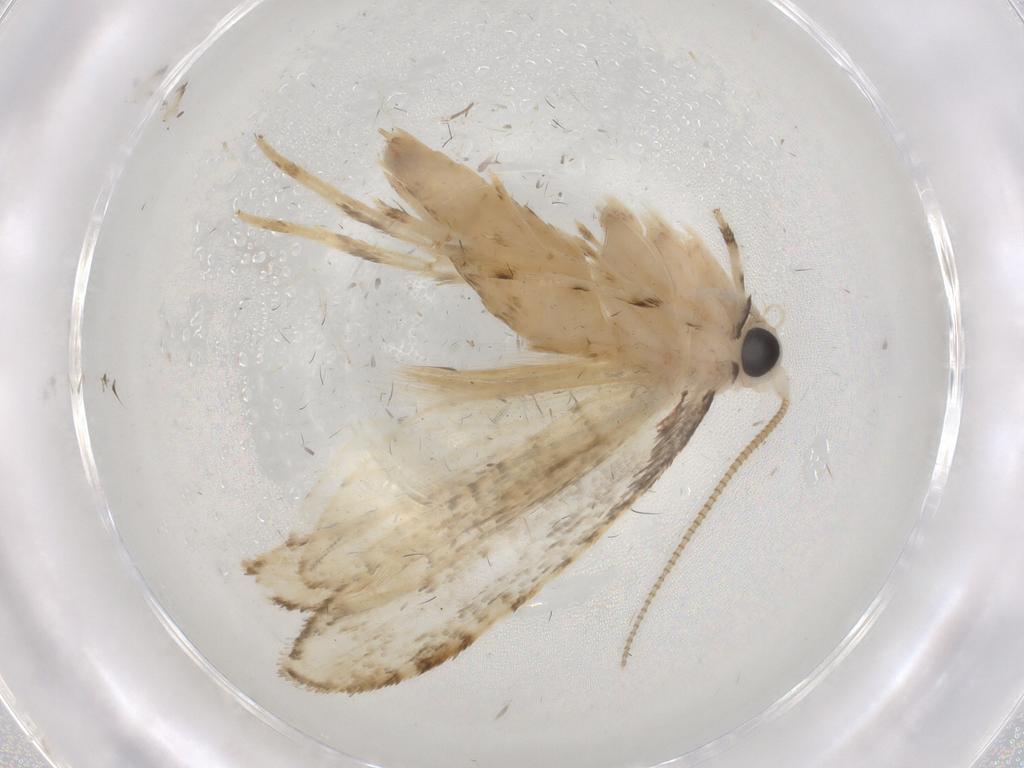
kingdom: Animalia
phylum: Arthropoda
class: Insecta
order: Lepidoptera
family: Tineidae
